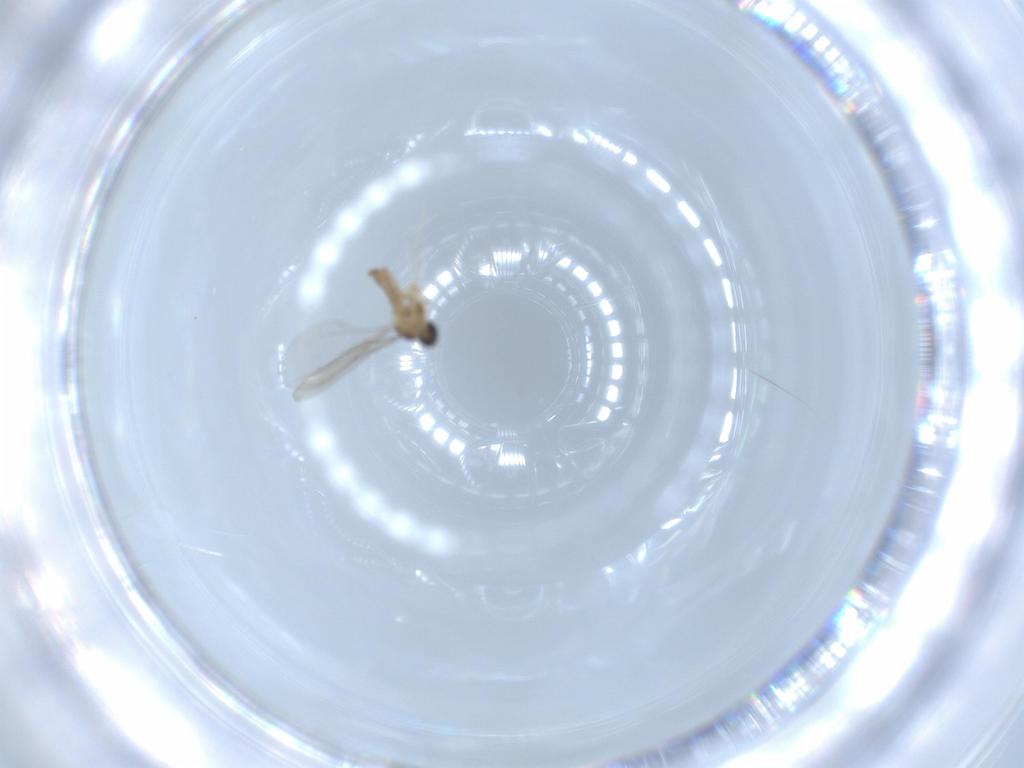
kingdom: Animalia
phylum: Arthropoda
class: Insecta
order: Diptera
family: Cecidomyiidae
